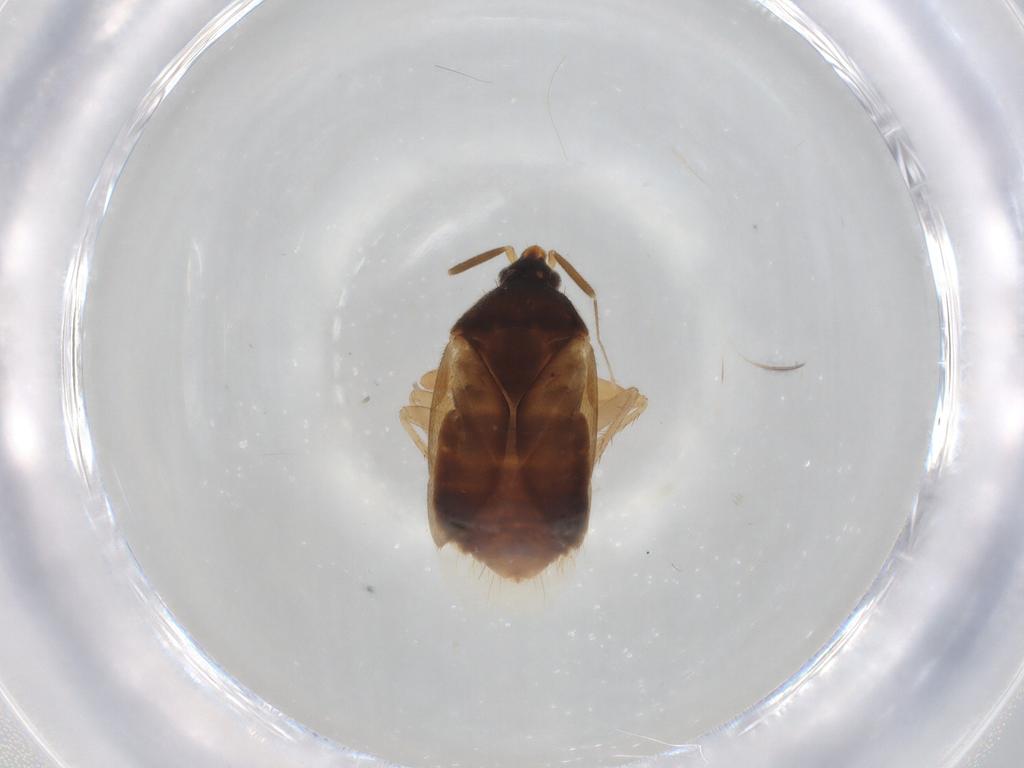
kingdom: Animalia
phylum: Arthropoda
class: Insecta
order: Hemiptera
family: Lasiochilidae
